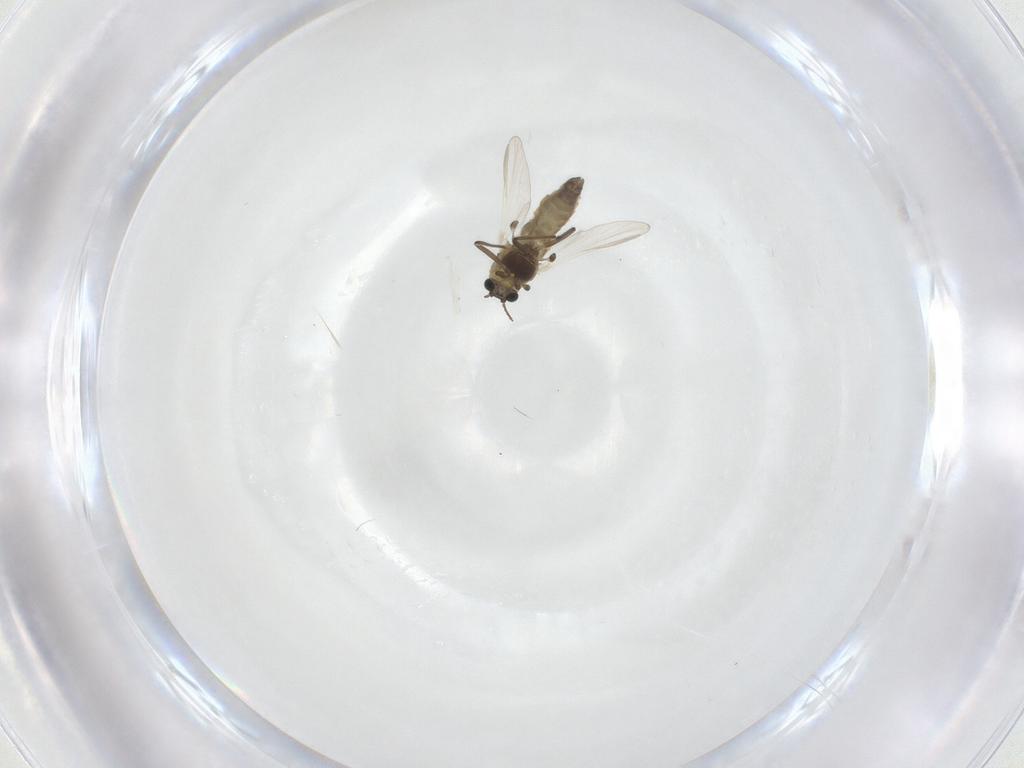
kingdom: Animalia
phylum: Arthropoda
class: Insecta
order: Diptera
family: Chironomidae
